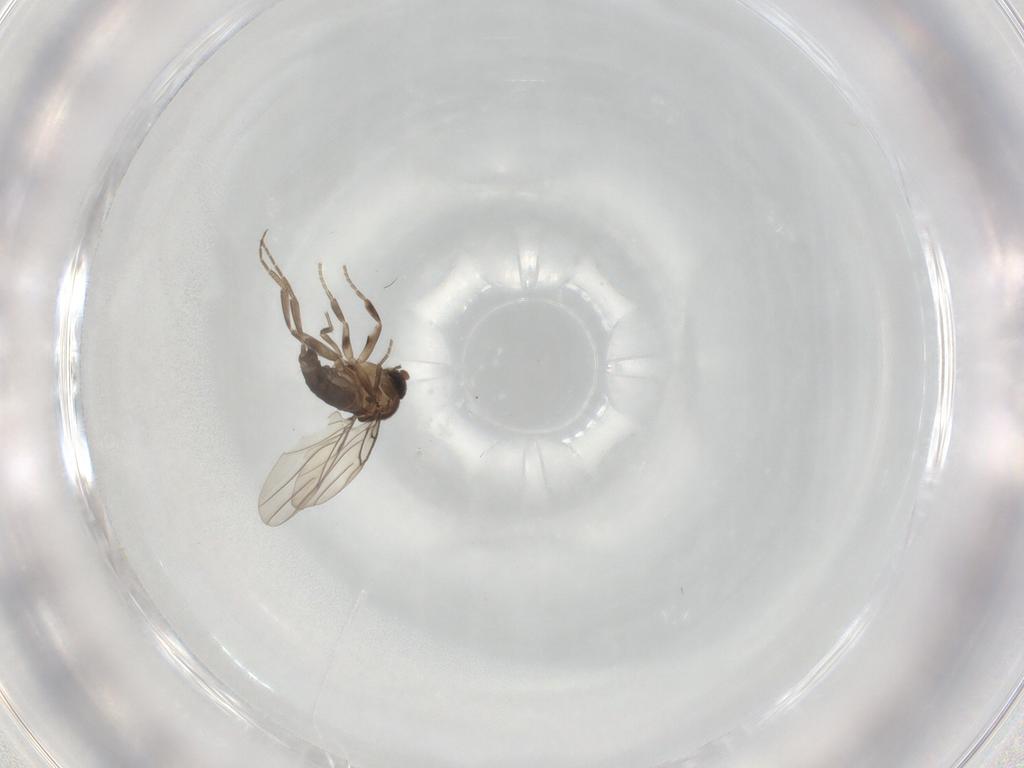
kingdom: Animalia
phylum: Arthropoda
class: Insecta
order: Diptera
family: Phoridae
